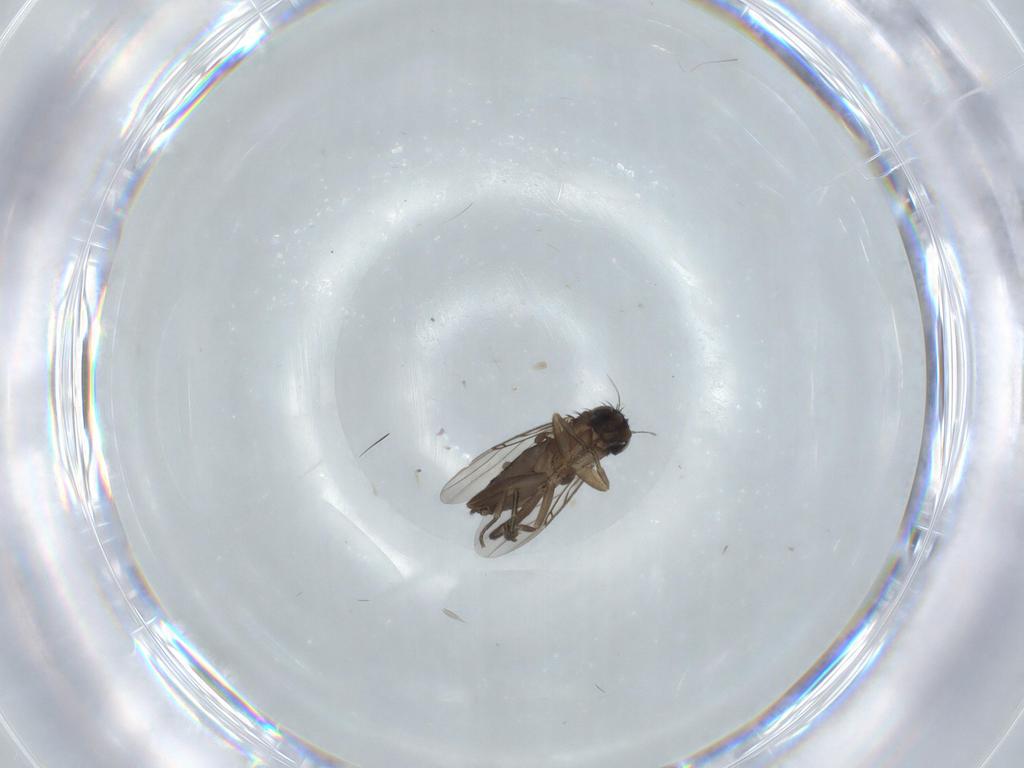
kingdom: Animalia
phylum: Arthropoda
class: Insecta
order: Diptera
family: Phoridae
